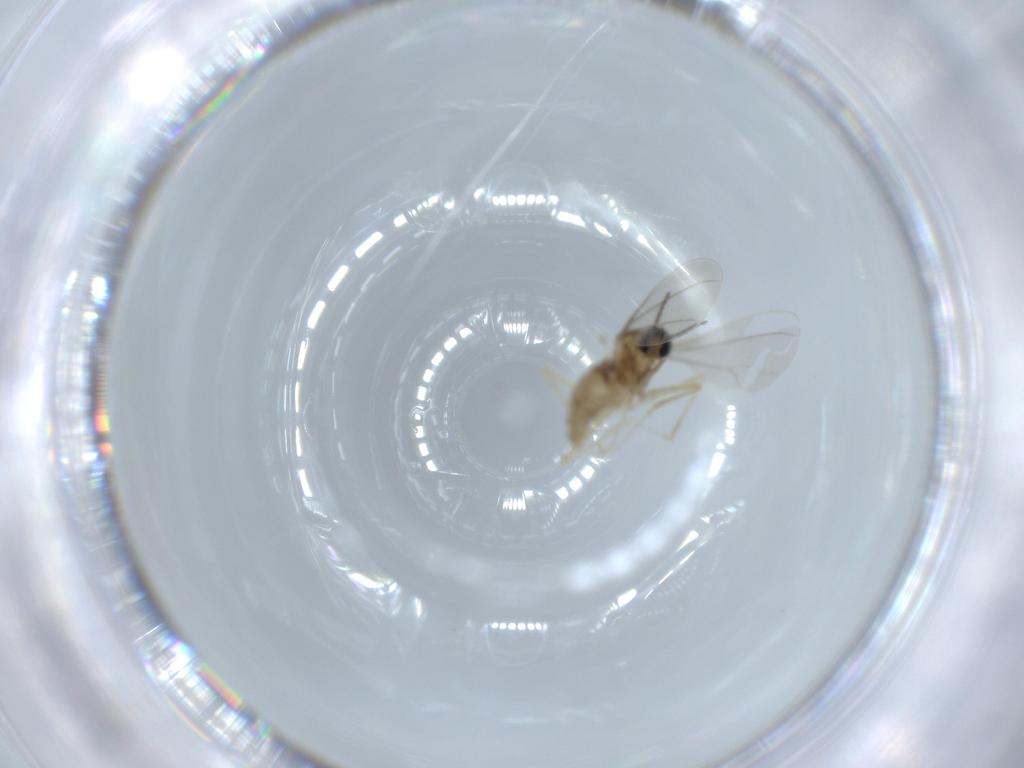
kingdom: Animalia
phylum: Arthropoda
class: Insecta
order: Diptera
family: Cecidomyiidae
